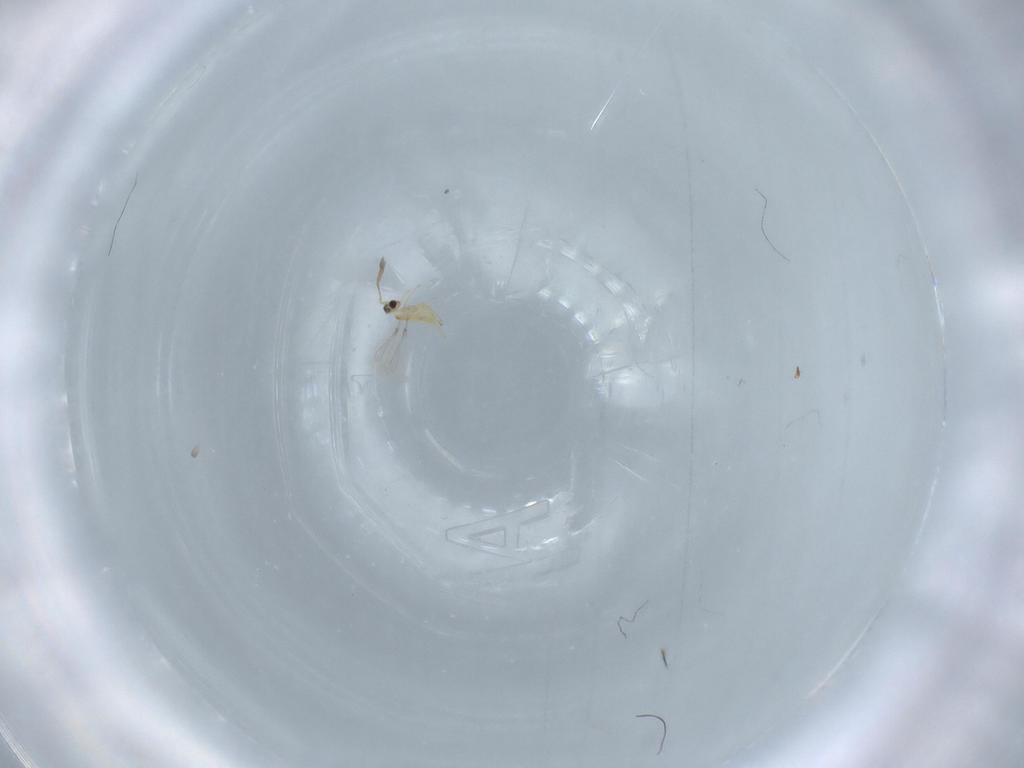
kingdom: Animalia
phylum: Arthropoda
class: Insecta
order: Hymenoptera
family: Mymaridae
